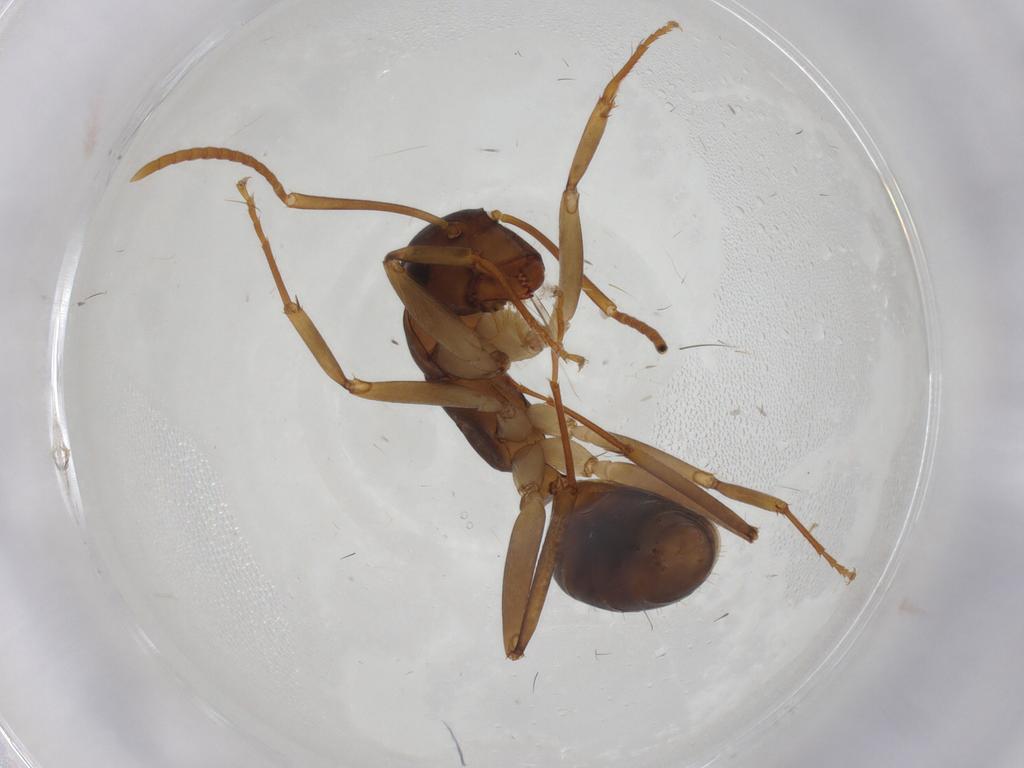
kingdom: Animalia
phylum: Arthropoda
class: Insecta
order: Hymenoptera
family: Formicidae
